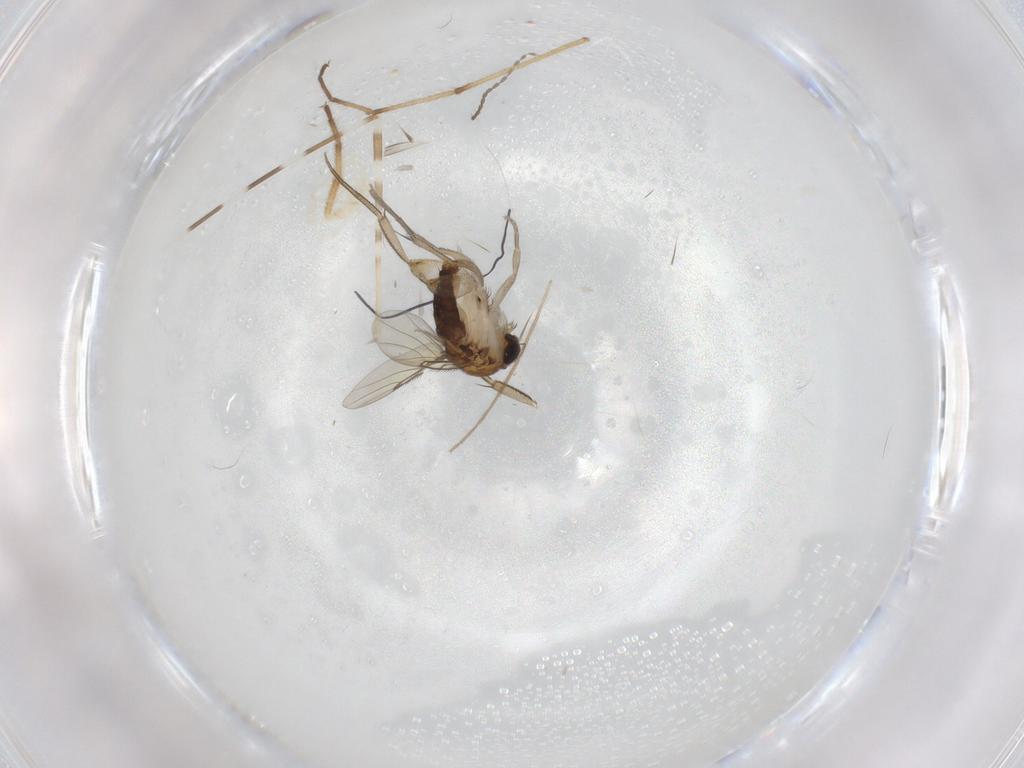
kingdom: Animalia
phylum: Arthropoda
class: Insecta
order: Diptera
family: Phoridae
